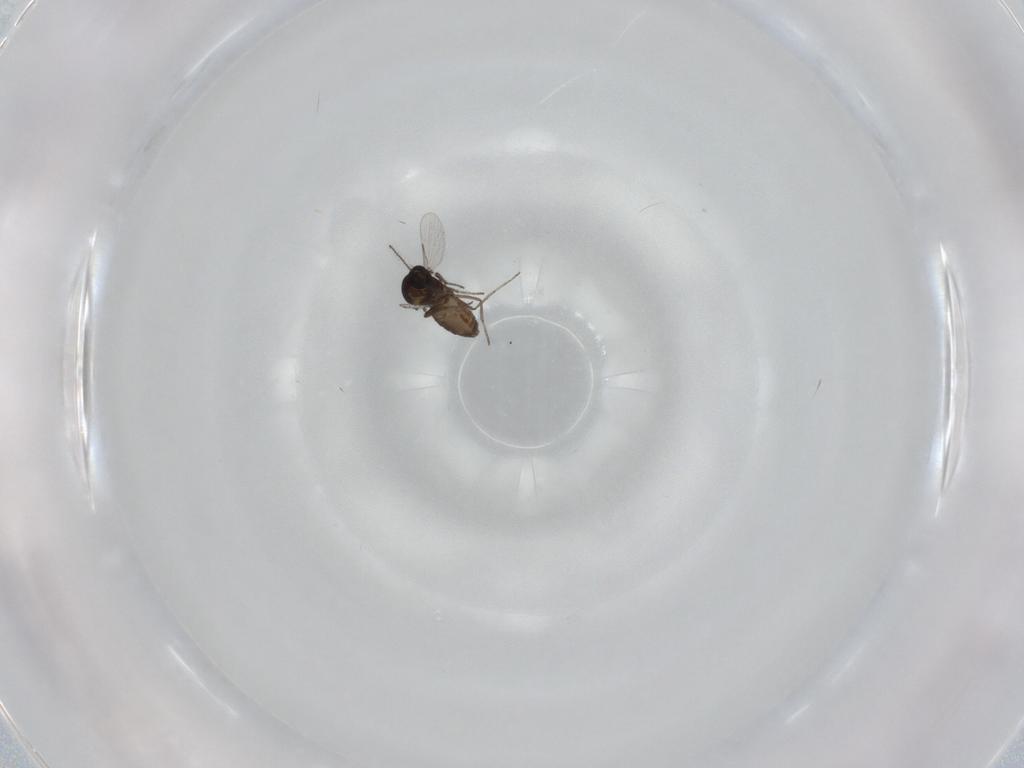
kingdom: Animalia
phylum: Arthropoda
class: Insecta
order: Diptera
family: Ceratopogonidae
